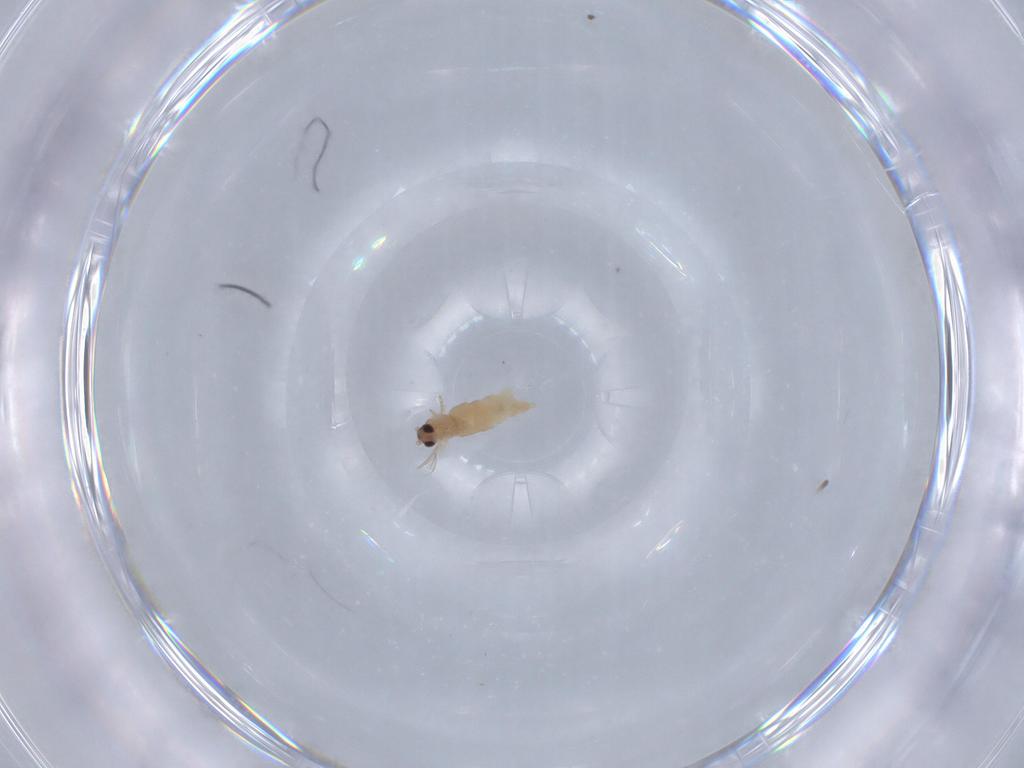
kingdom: Animalia
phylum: Arthropoda
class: Insecta
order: Diptera
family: Cecidomyiidae
